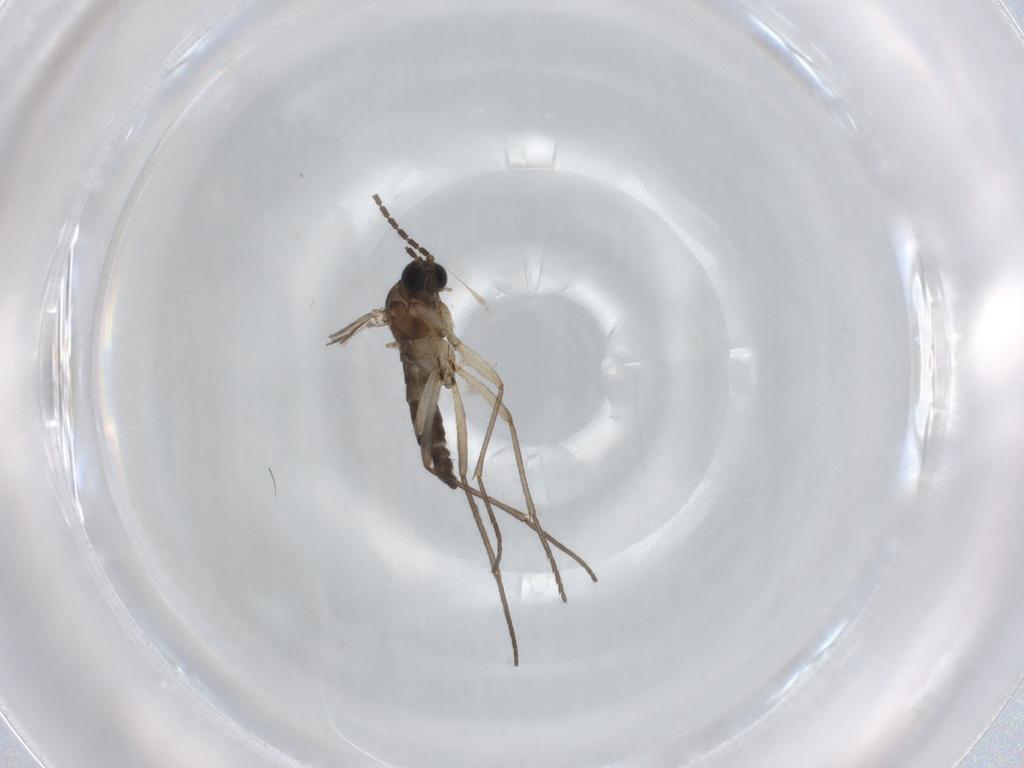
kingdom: Animalia
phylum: Arthropoda
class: Insecta
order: Diptera
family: Sciaridae
